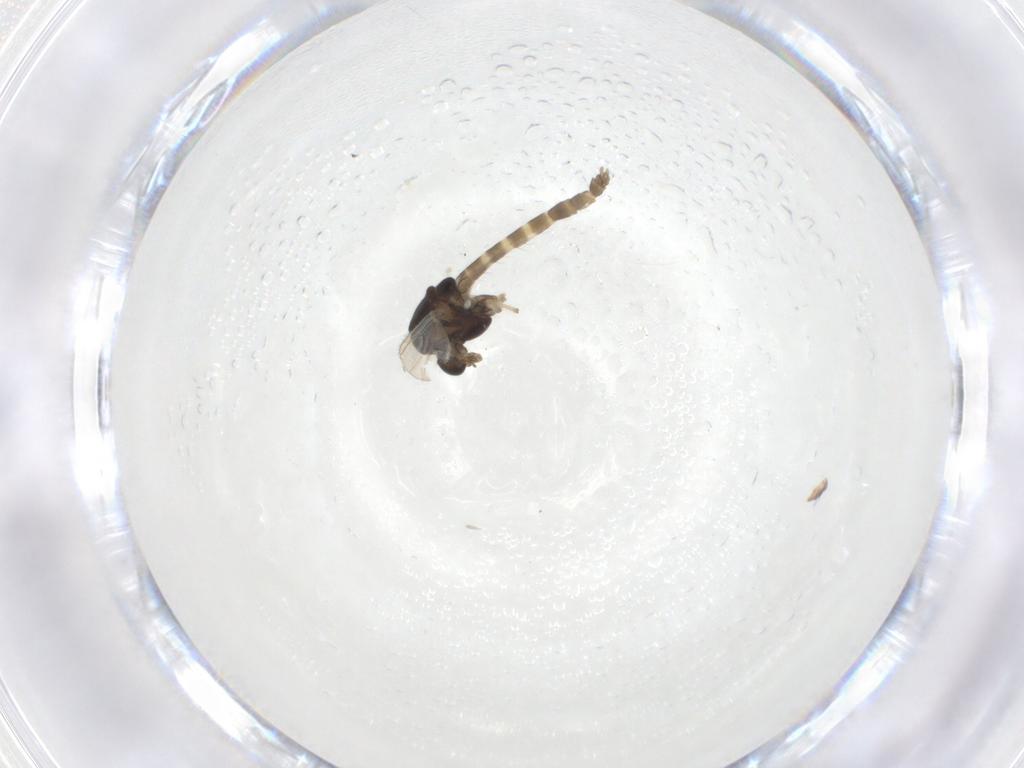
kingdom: Animalia
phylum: Arthropoda
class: Insecta
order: Diptera
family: Chironomidae
